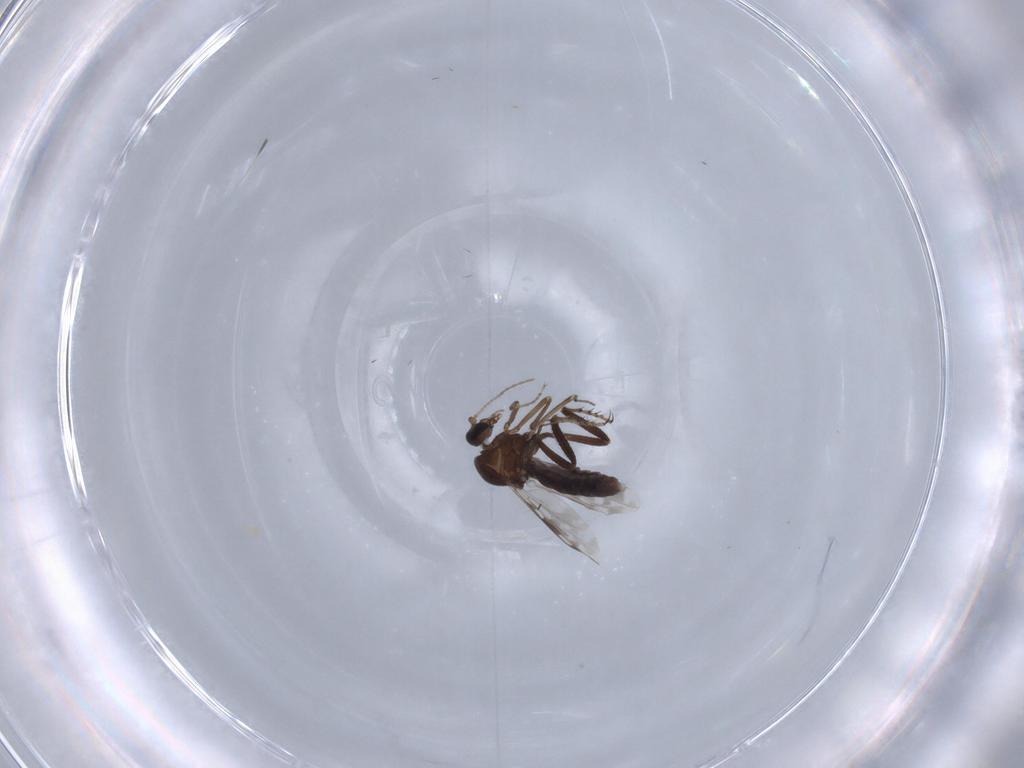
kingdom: Animalia
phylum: Arthropoda
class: Insecta
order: Diptera
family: Ceratopogonidae
